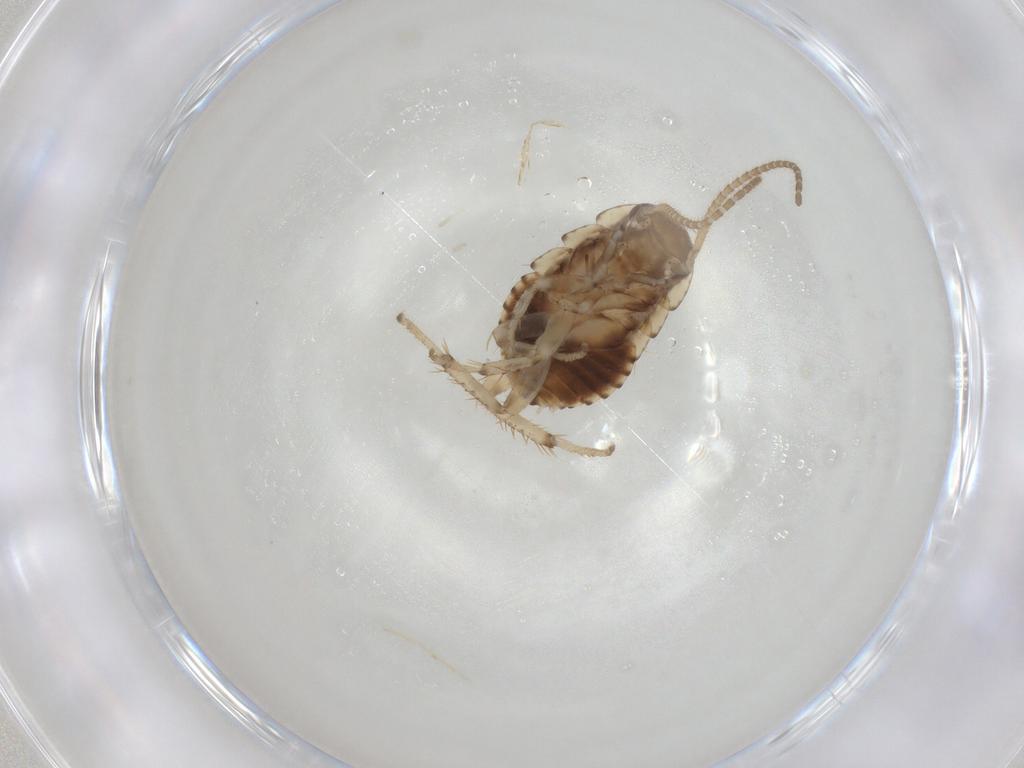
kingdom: Animalia
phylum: Arthropoda
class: Insecta
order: Blattodea
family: Blaberidae
